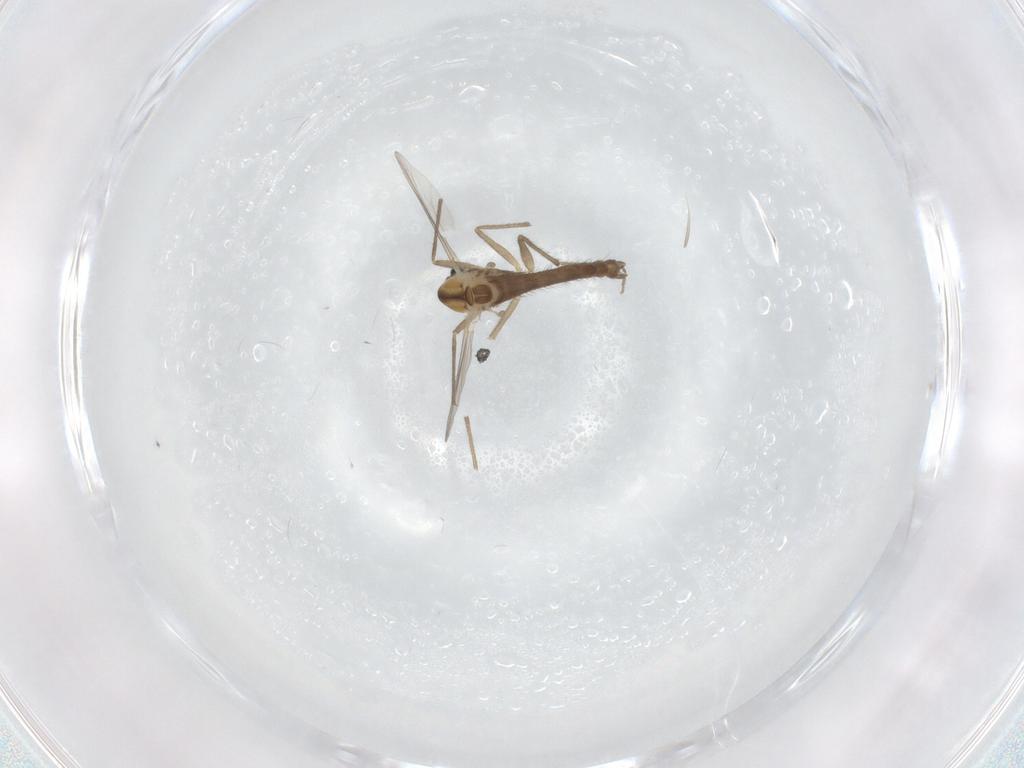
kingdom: Animalia
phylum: Arthropoda
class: Insecta
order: Diptera
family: Chironomidae
